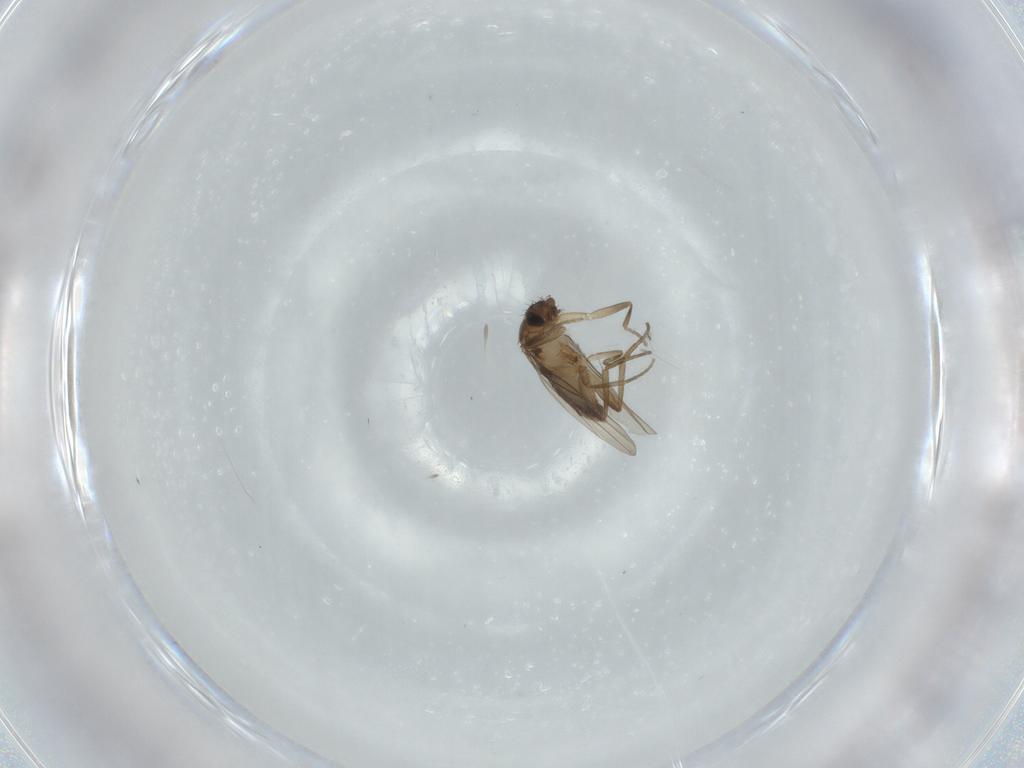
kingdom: Animalia
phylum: Arthropoda
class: Insecta
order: Diptera
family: Phoridae
